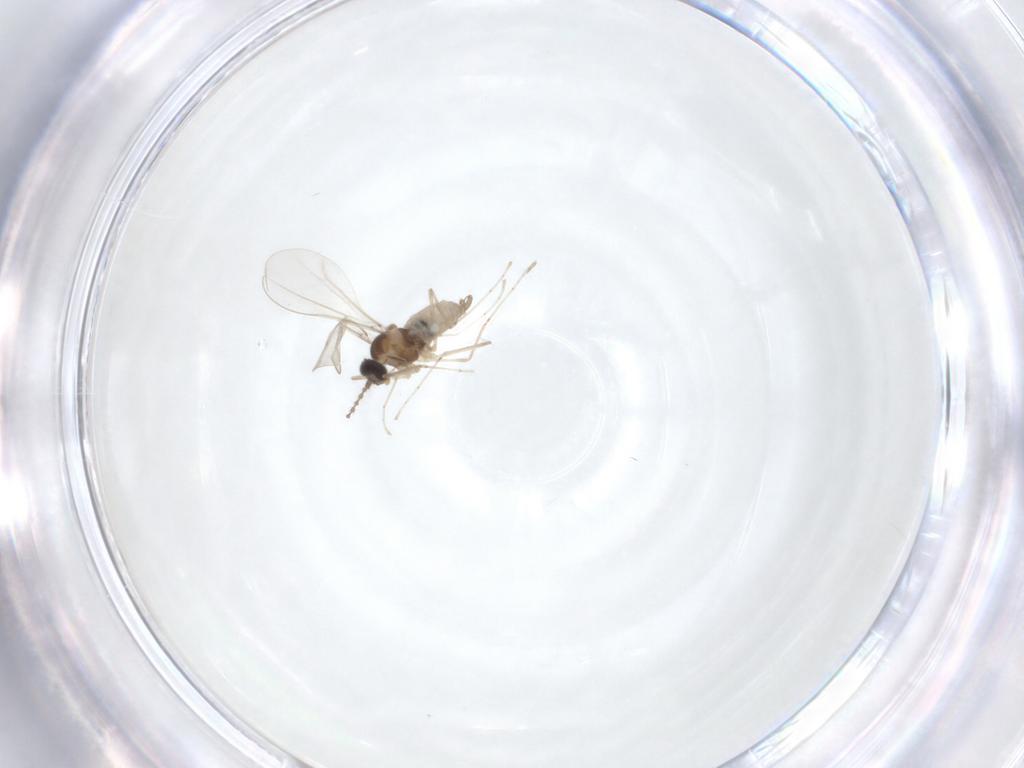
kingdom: Animalia
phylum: Arthropoda
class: Insecta
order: Diptera
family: Cecidomyiidae
